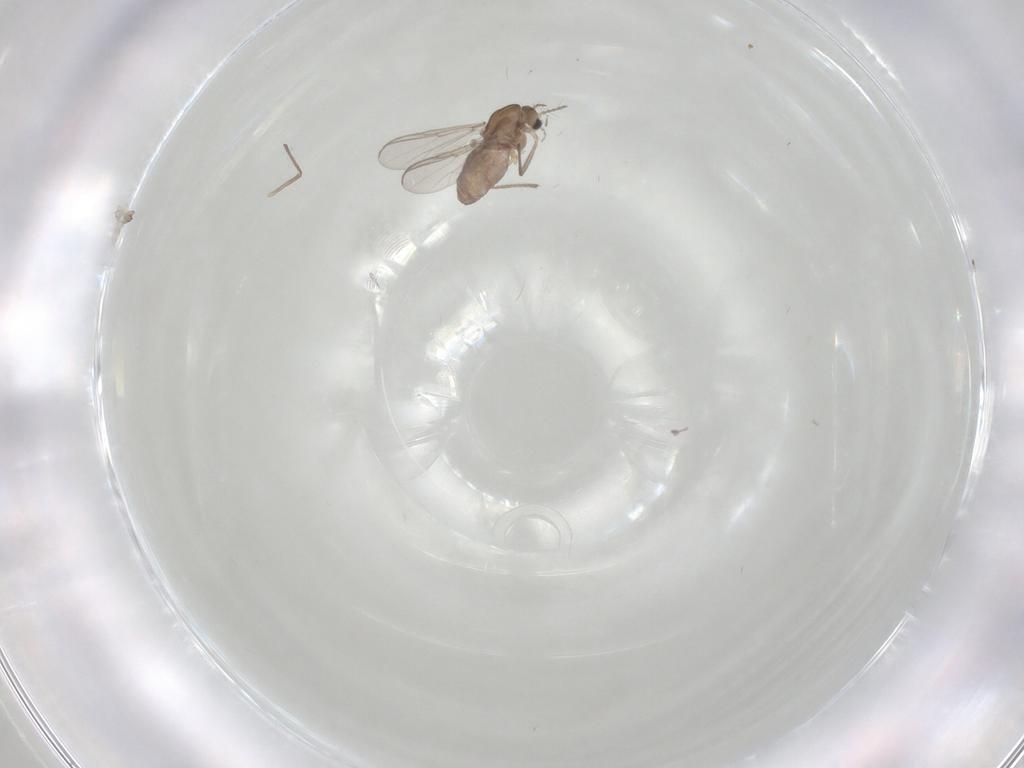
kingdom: Animalia
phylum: Arthropoda
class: Insecta
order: Diptera
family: Chironomidae
